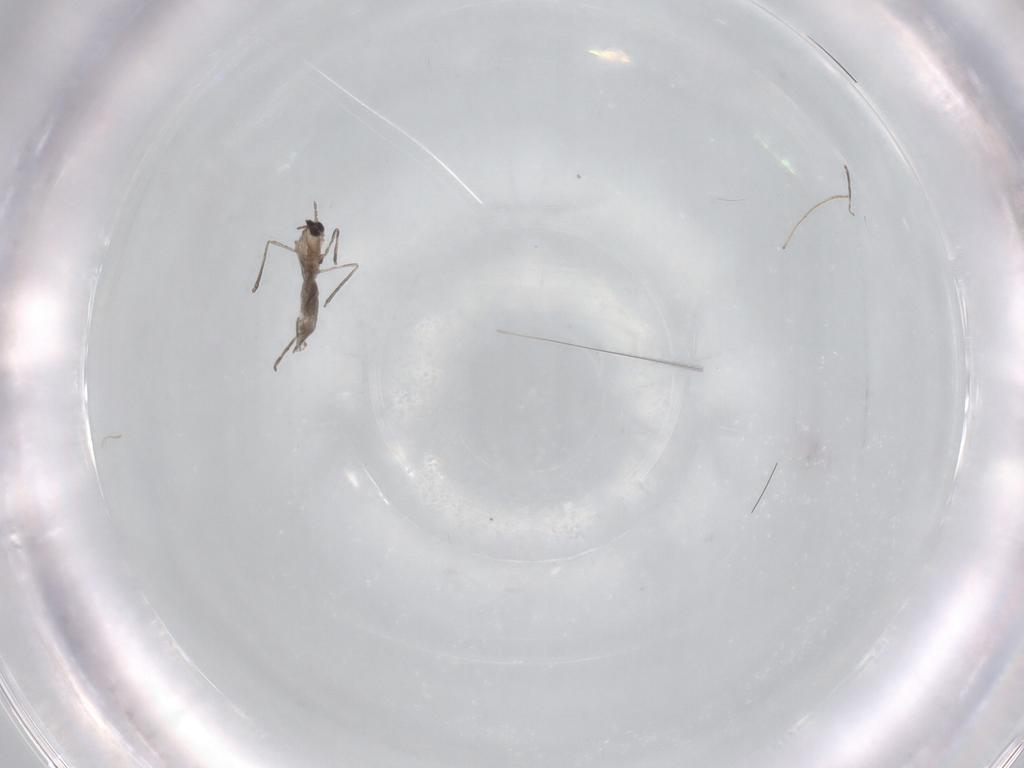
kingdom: Animalia
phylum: Arthropoda
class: Insecta
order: Diptera
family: Cecidomyiidae
